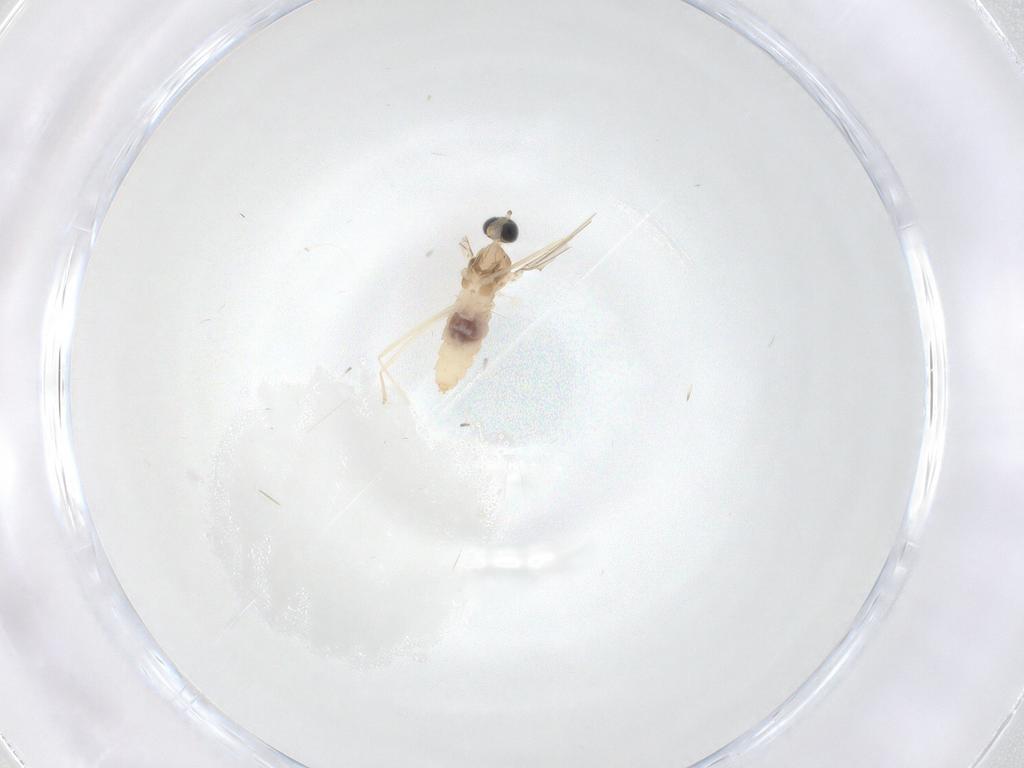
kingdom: Animalia
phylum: Arthropoda
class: Insecta
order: Diptera
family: Cecidomyiidae
